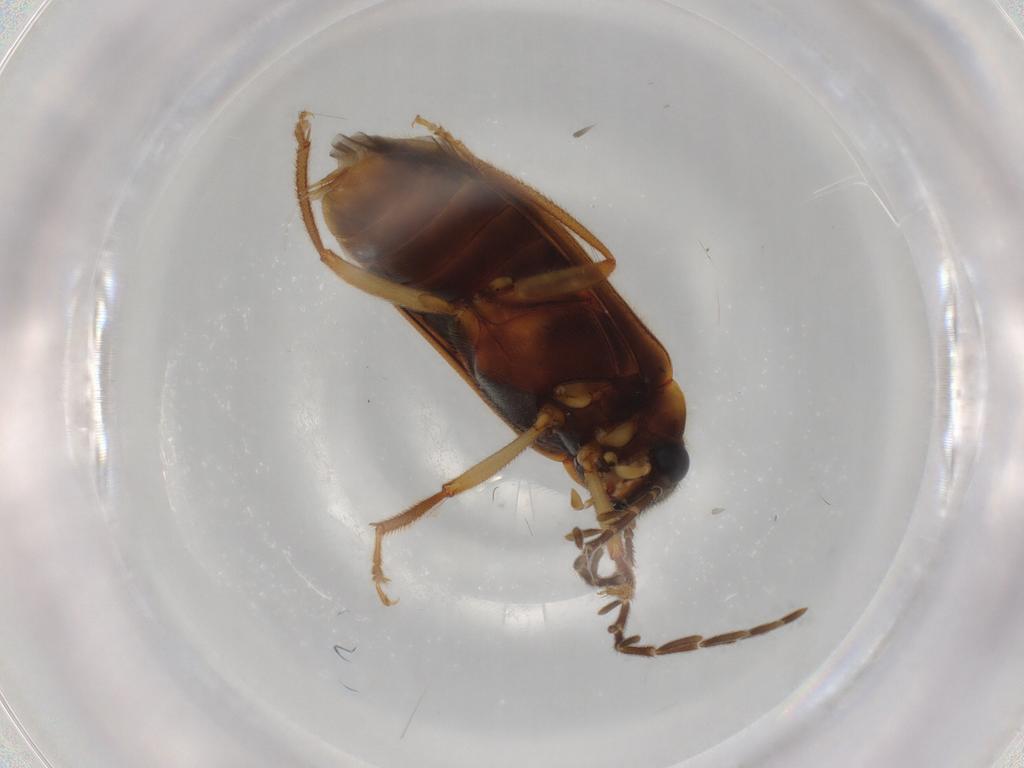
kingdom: Animalia
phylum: Arthropoda
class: Insecta
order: Coleoptera
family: Ptilodactylidae
